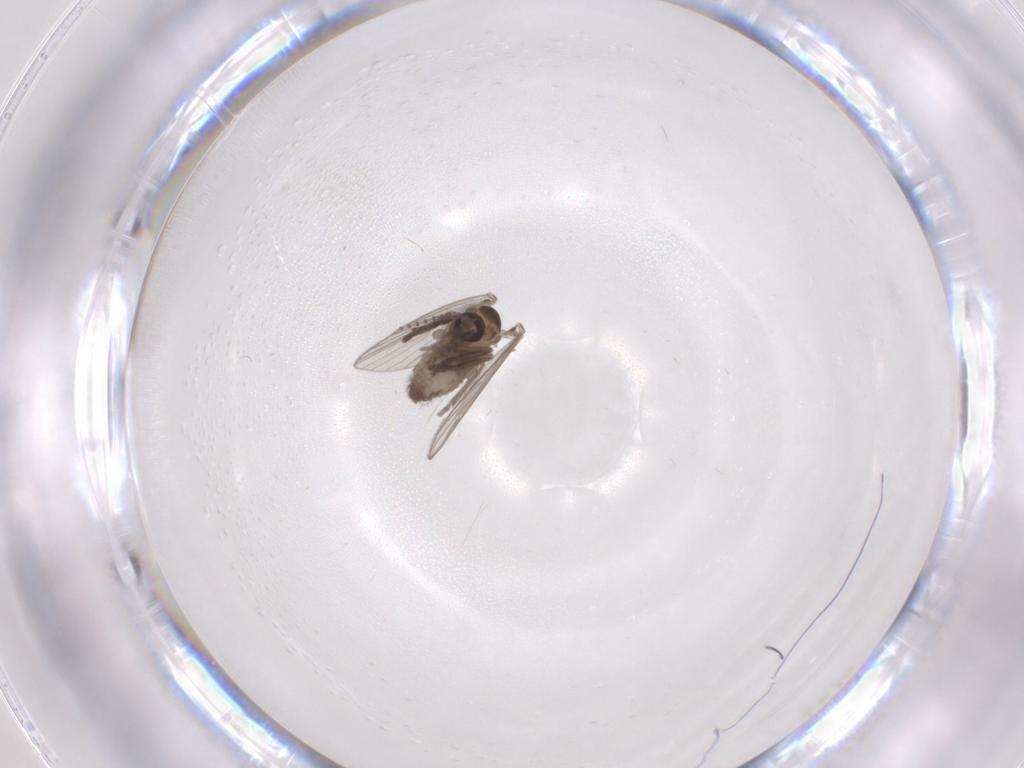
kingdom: Animalia
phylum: Arthropoda
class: Insecta
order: Diptera
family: Psychodidae
